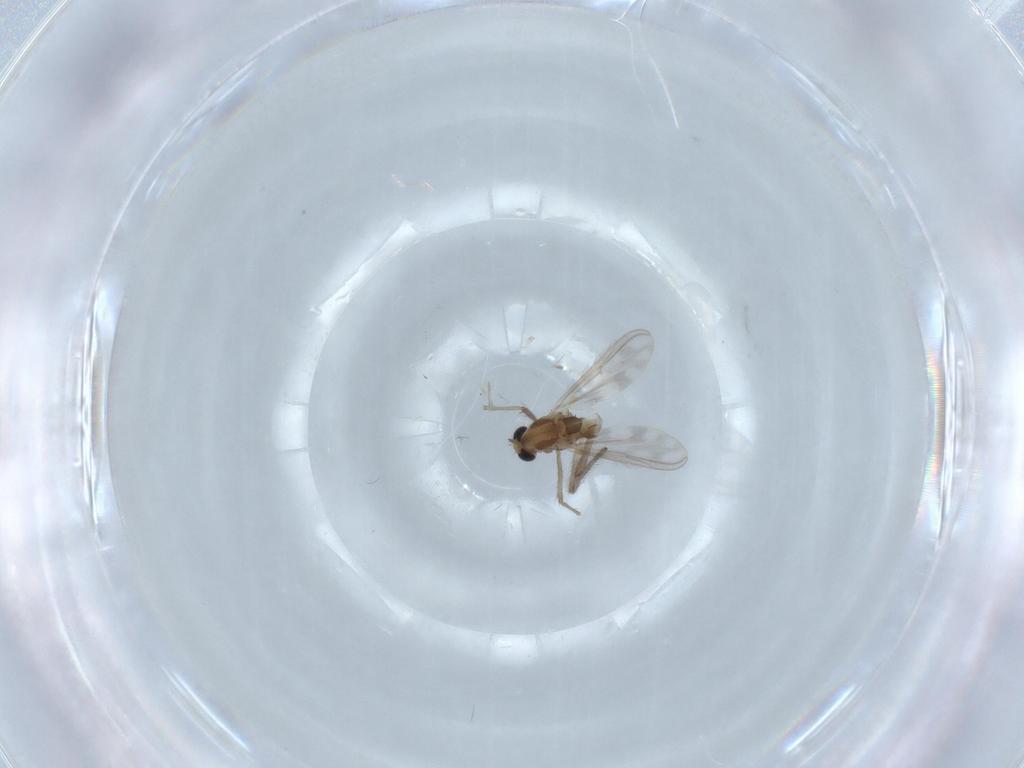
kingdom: Animalia
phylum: Arthropoda
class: Insecta
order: Diptera
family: Chironomidae
